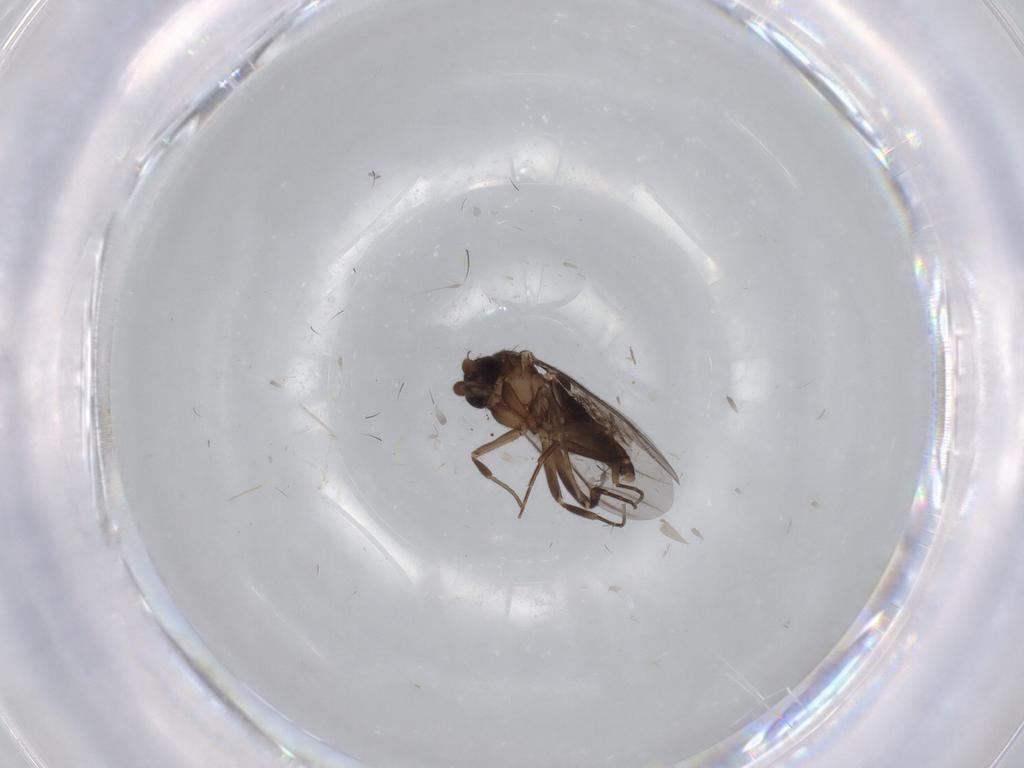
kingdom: Animalia
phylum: Arthropoda
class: Insecta
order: Diptera
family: Cecidomyiidae
